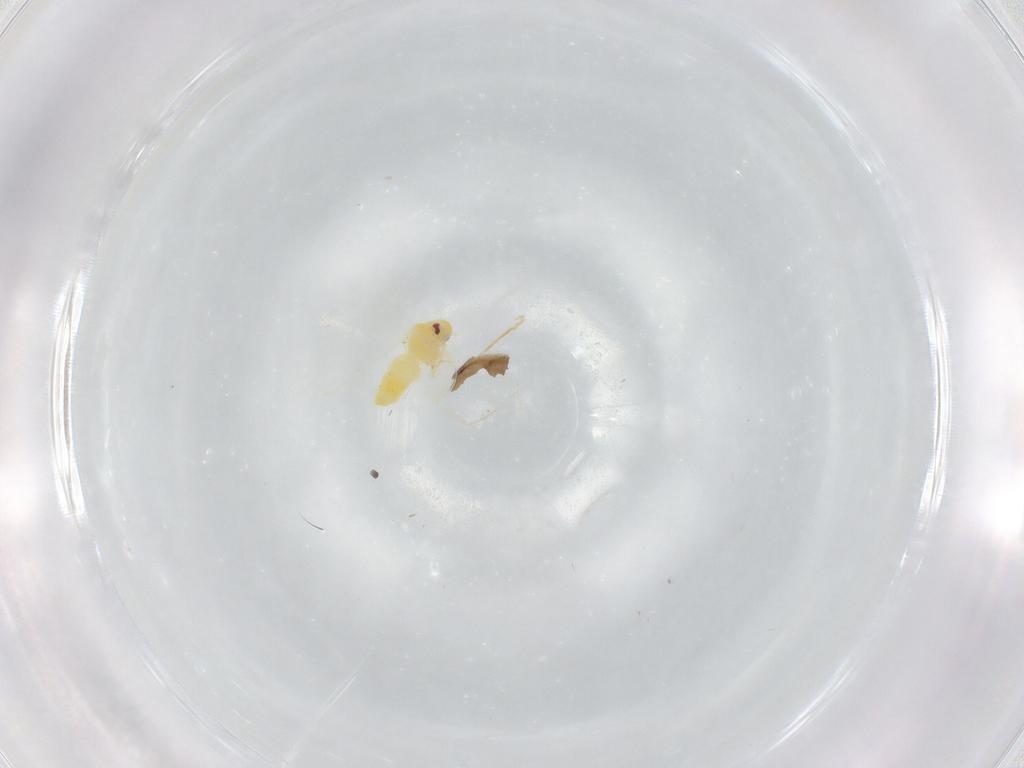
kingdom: Animalia
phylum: Arthropoda
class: Insecta
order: Hemiptera
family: Aleyrodidae
